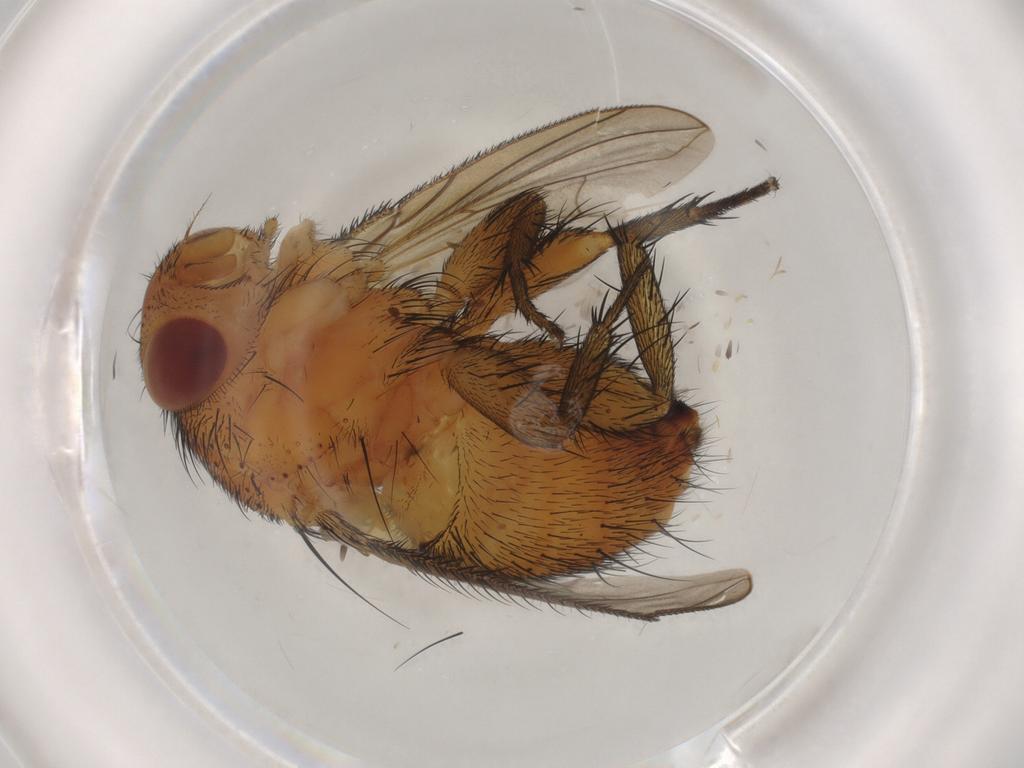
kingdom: Animalia
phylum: Arthropoda
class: Insecta
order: Diptera
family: Calliphoridae
